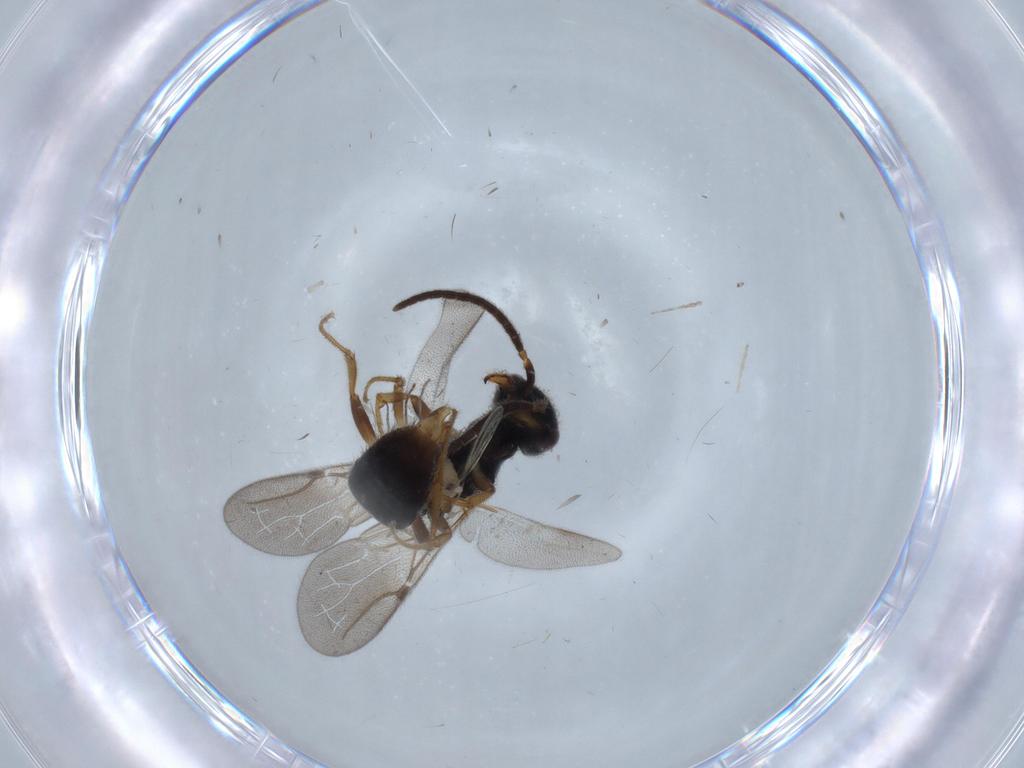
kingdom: Animalia
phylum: Arthropoda
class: Insecta
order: Diptera
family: Cecidomyiidae
